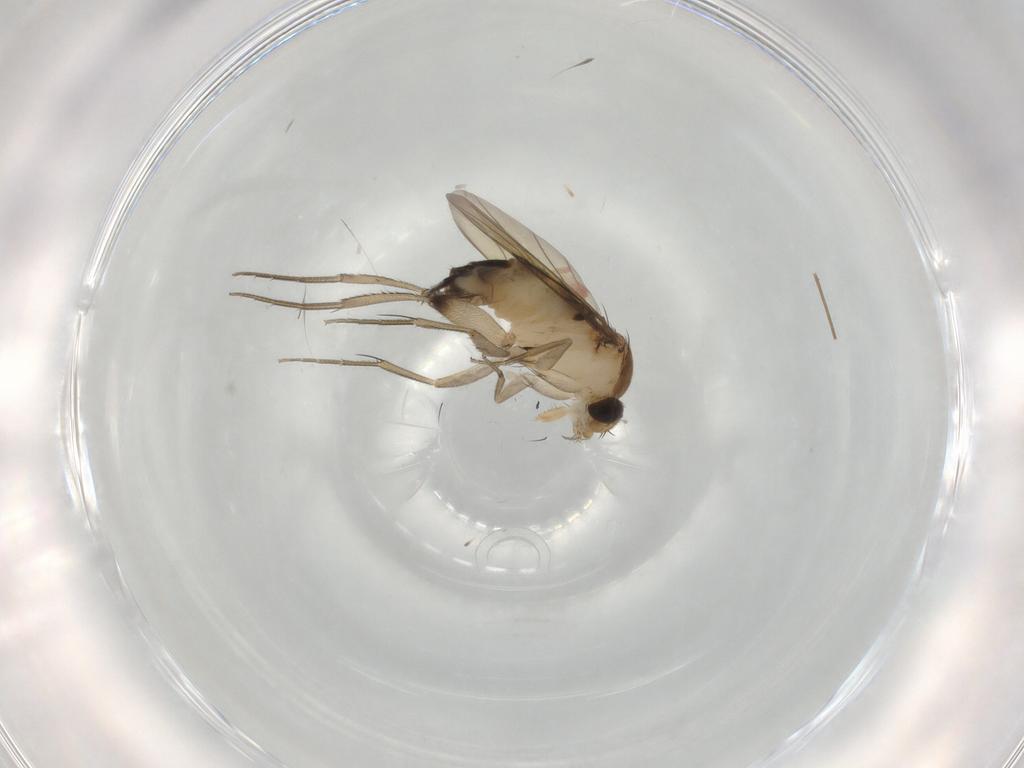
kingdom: Animalia
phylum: Arthropoda
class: Insecta
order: Diptera
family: Phoridae
